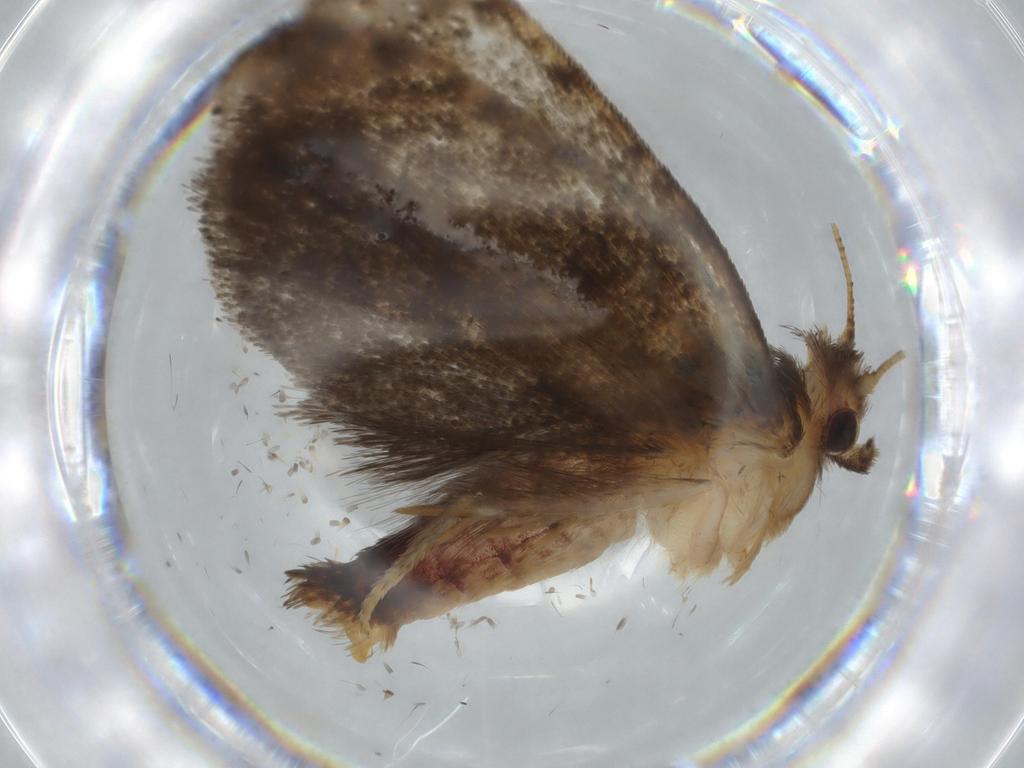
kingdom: Animalia
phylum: Arthropoda
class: Insecta
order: Lepidoptera
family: Tineidae
